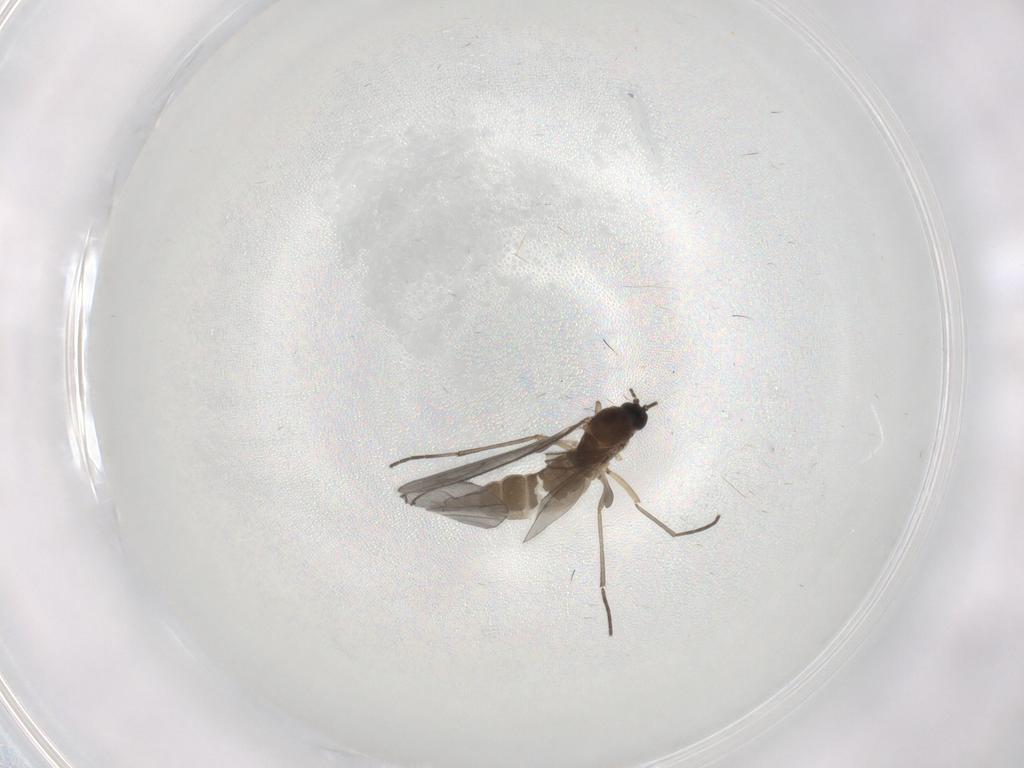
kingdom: Animalia
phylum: Arthropoda
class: Insecta
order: Diptera
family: Sciaridae
